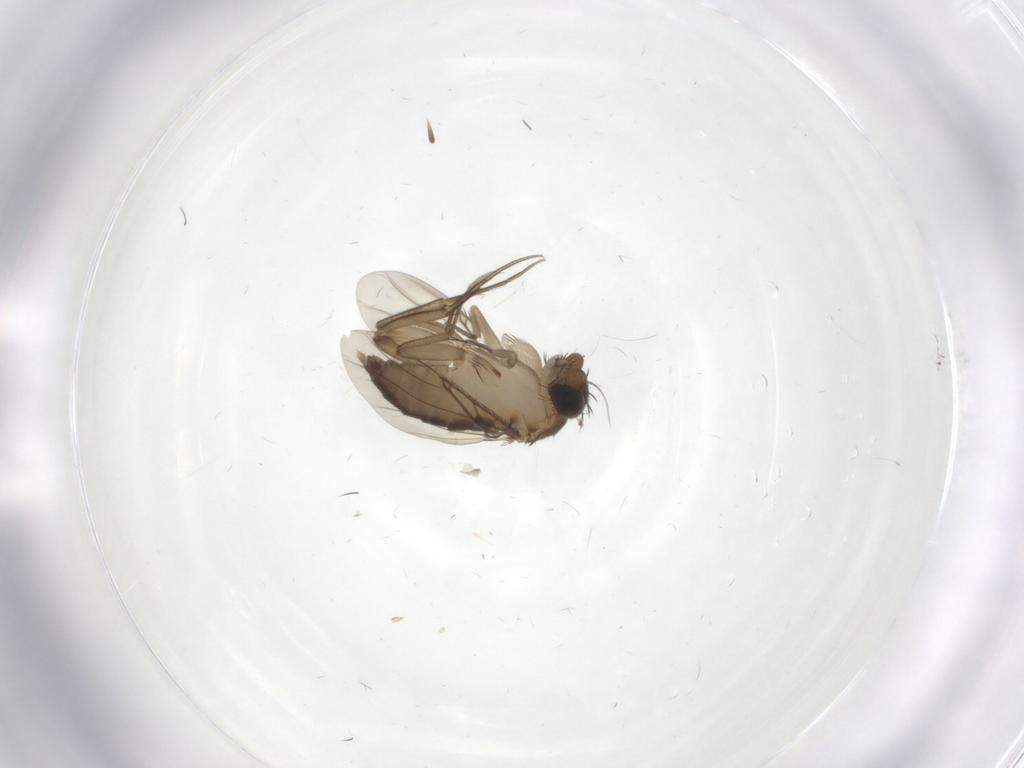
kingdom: Animalia
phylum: Arthropoda
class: Insecta
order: Diptera
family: Phoridae
